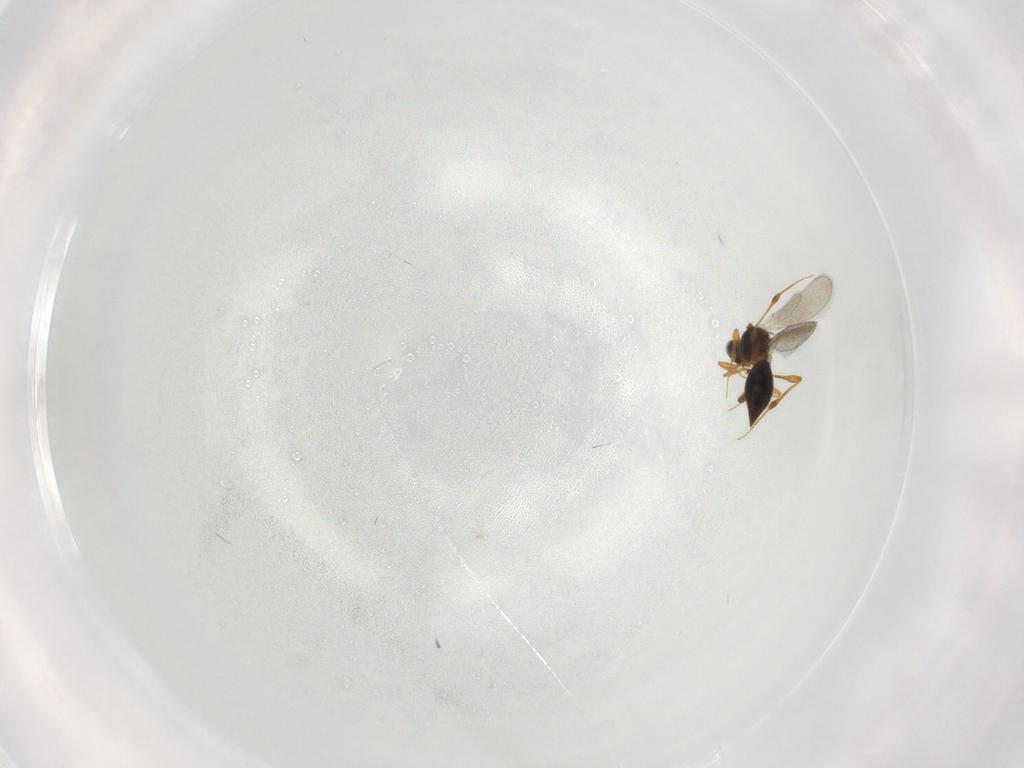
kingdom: Animalia
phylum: Arthropoda
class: Insecta
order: Hymenoptera
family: Platygastridae
